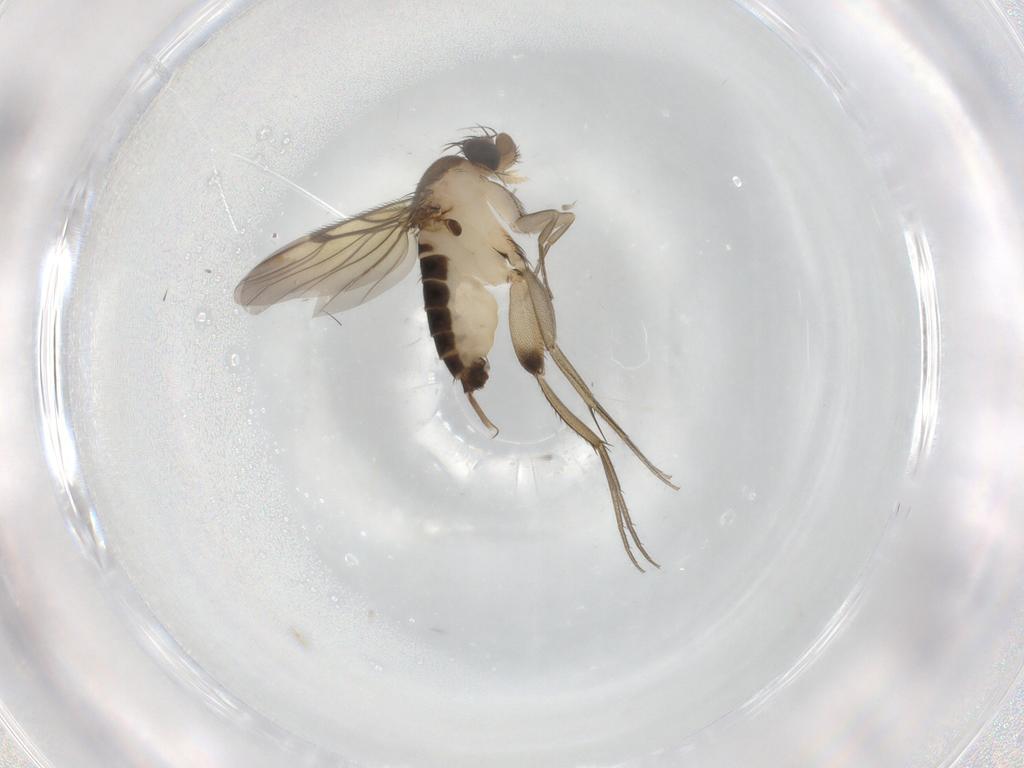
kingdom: Animalia
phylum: Arthropoda
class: Insecta
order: Diptera
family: Phoridae
